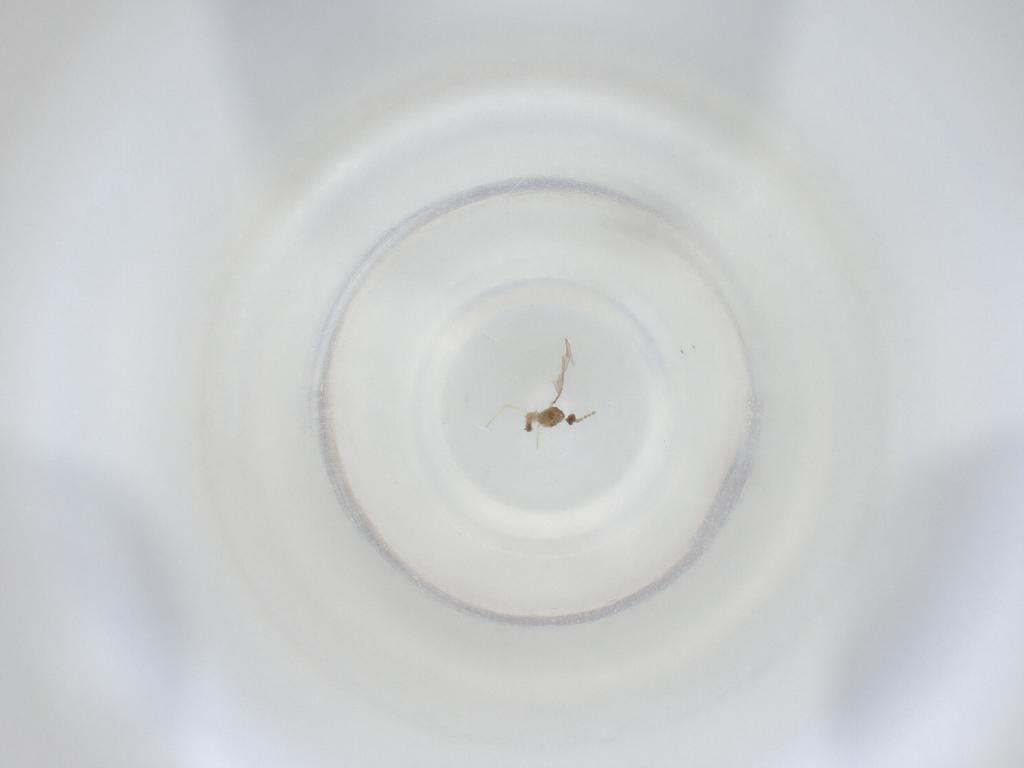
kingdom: Animalia
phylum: Arthropoda
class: Insecta
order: Diptera
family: Cecidomyiidae
